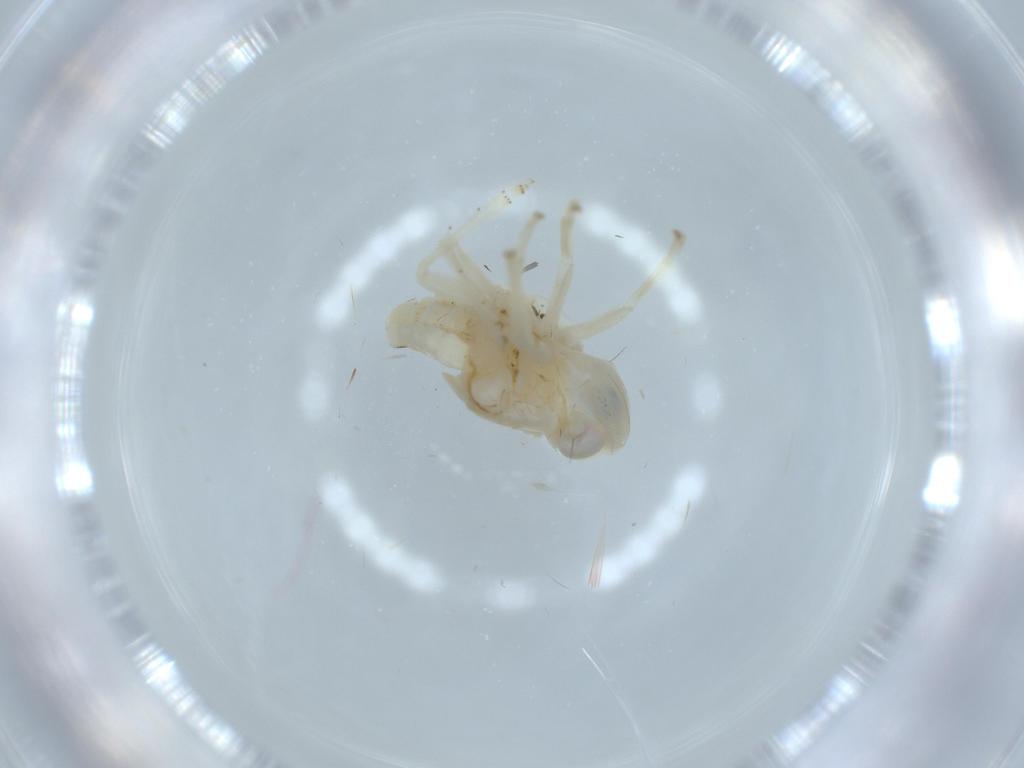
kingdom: Animalia
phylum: Arthropoda
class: Insecta
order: Hemiptera
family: Nogodinidae
